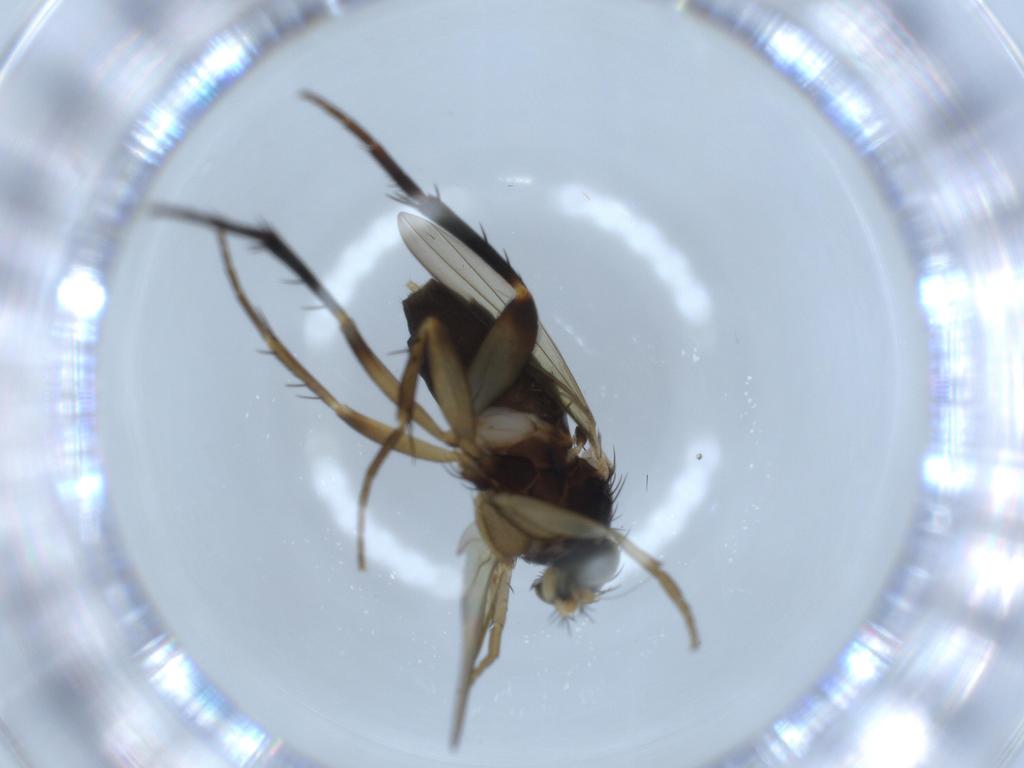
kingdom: Animalia
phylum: Arthropoda
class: Insecta
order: Diptera
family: Phoridae
